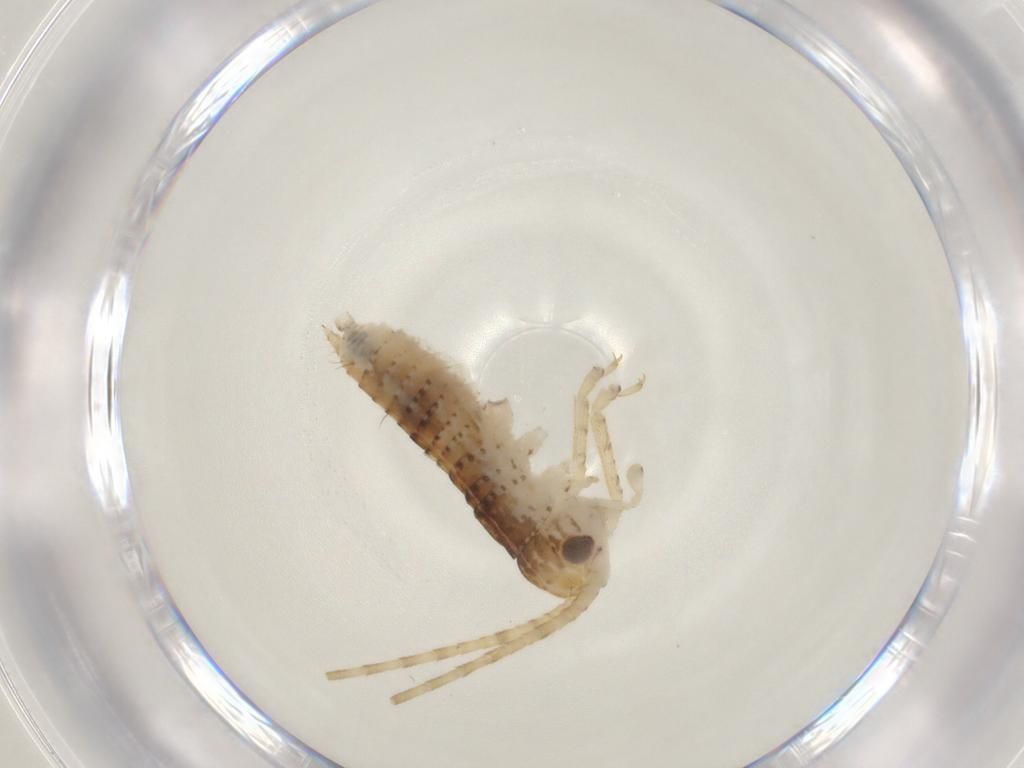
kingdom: Animalia
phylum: Arthropoda
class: Insecta
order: Orthoptera
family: Gryllidae
